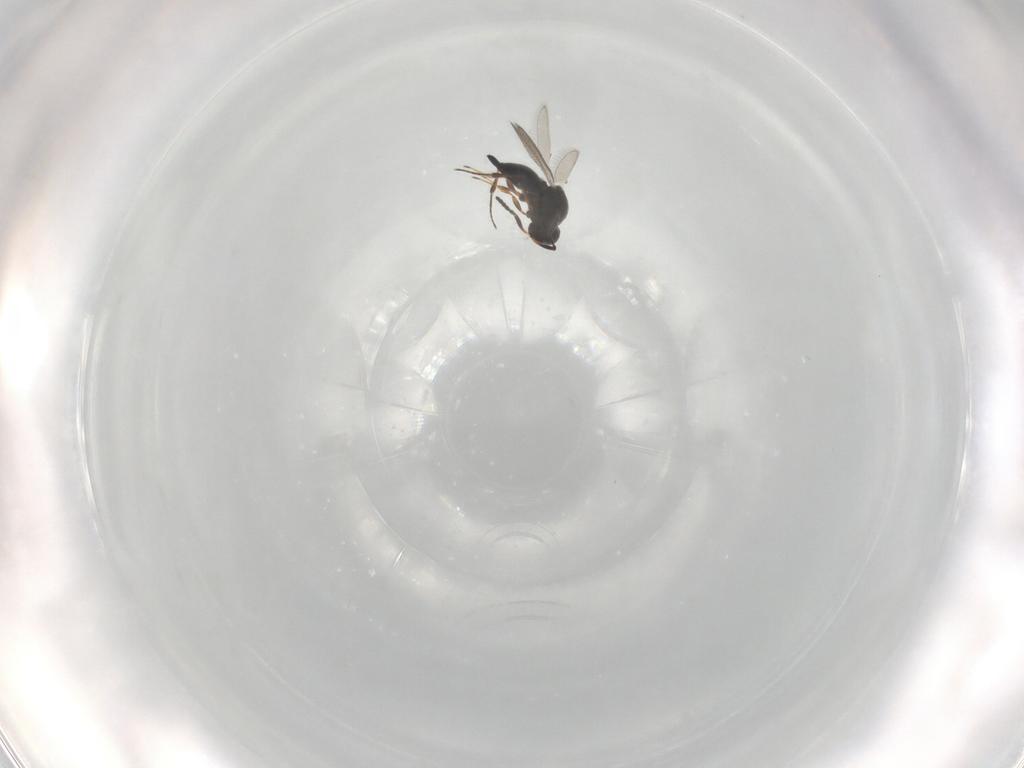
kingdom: Animalia
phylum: Arthropoda
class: Insecta
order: Hymenoptera
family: Platygastridae
